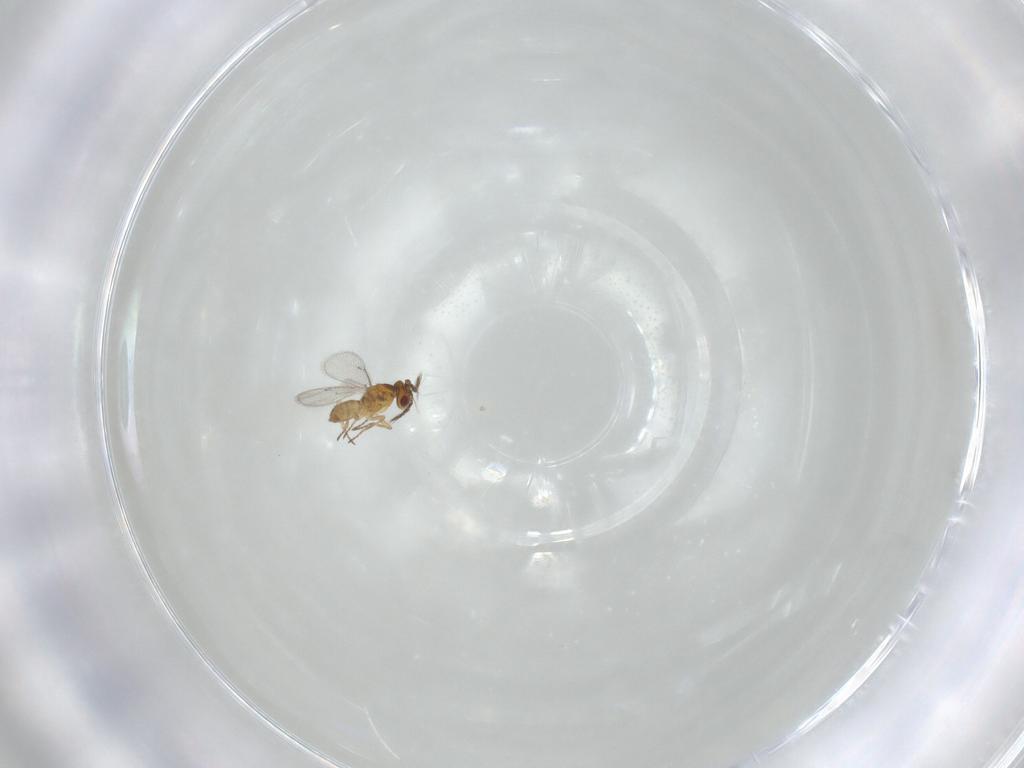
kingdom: Animalia
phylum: Arthropoda
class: Insecta
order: Hymenoptera
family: Eulophidae
